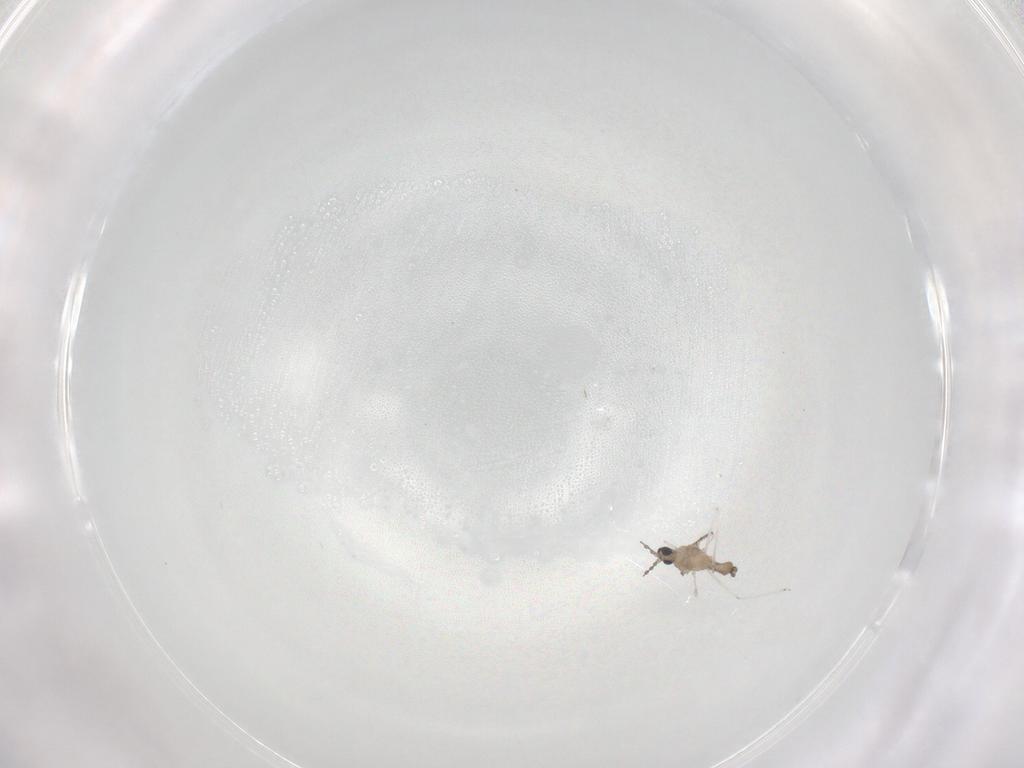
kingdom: Animalia
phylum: Arthropoda
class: Insecta
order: Diptera
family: Cecidomyiidae
